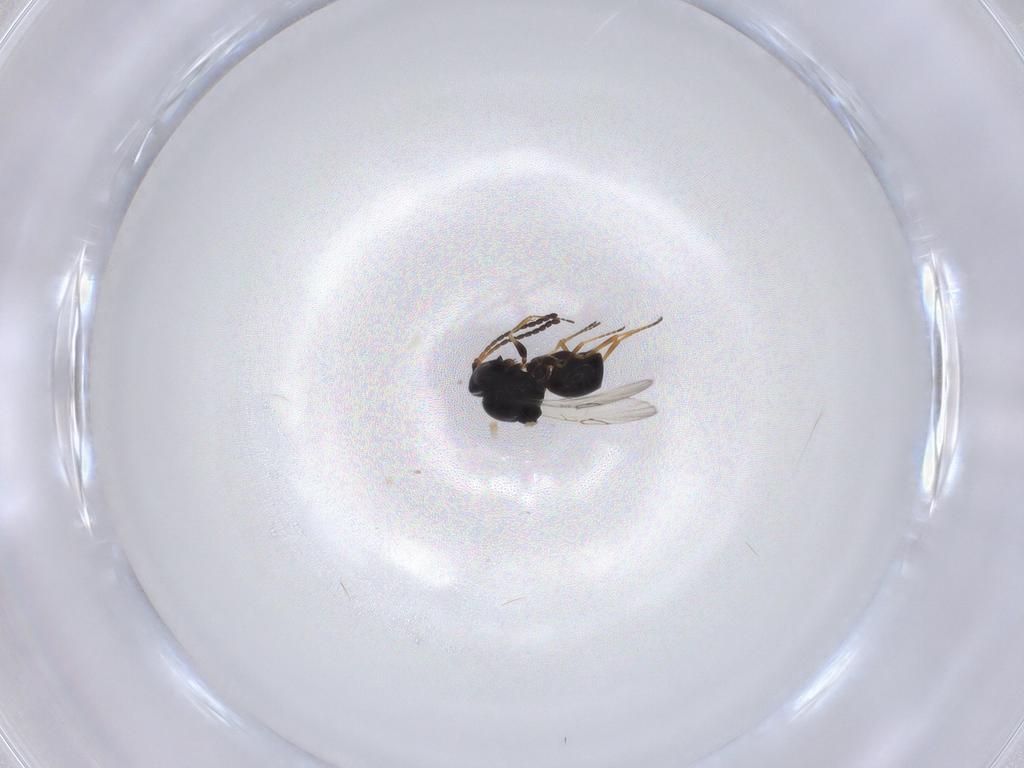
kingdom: Animalia
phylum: Arthropoda
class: Insecta
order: Hymenoptera
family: Figitidae
